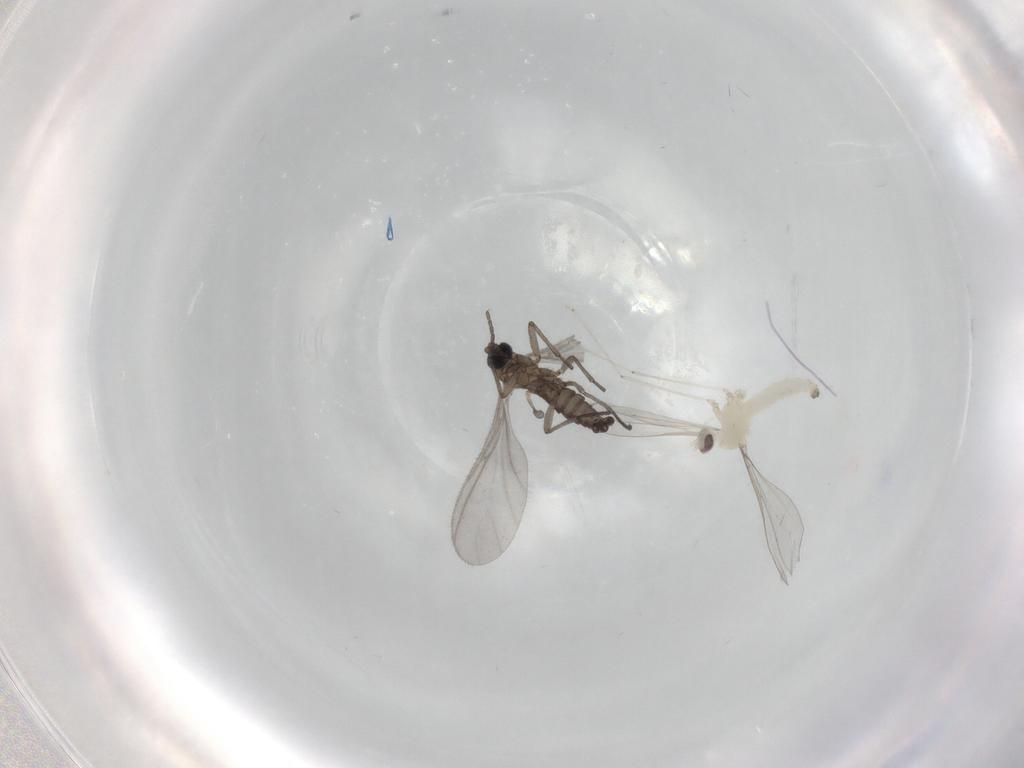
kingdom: Animalia
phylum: Arthropoda
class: Insecta
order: Diptera
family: Sciaridae
